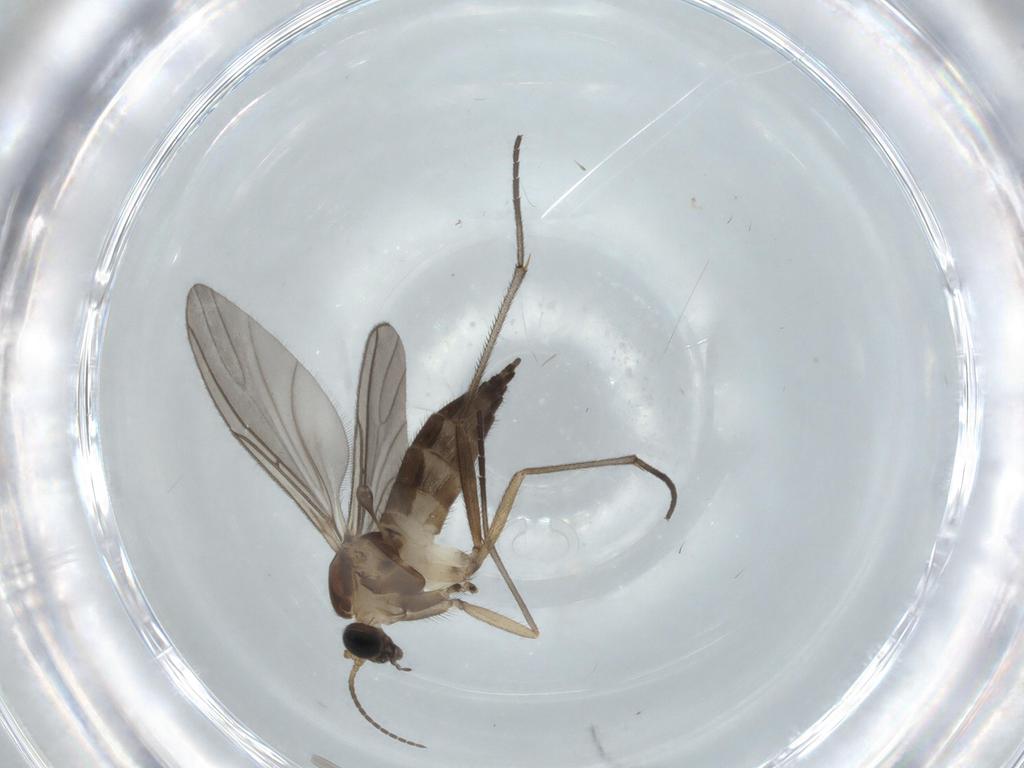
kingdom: Animalia
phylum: Arthropoda
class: Insecta
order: Diptera
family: Sciaridae
